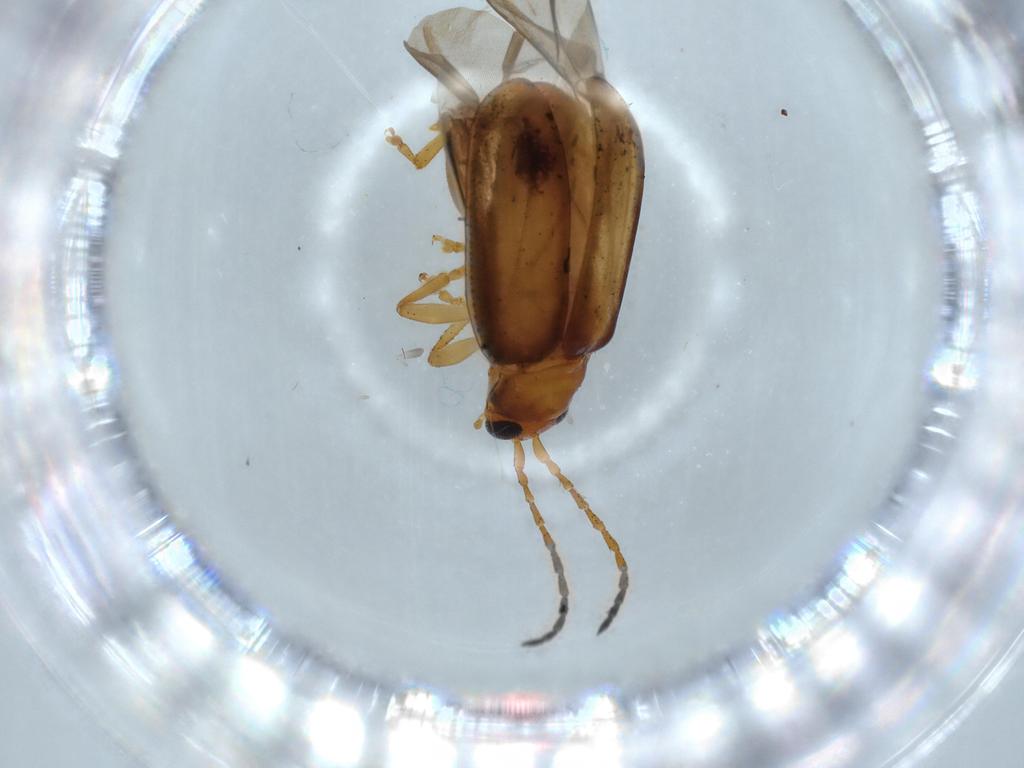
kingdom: Animalia
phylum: Arthropoda
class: Insecta
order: Coleoptera
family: Chrysomelidae
